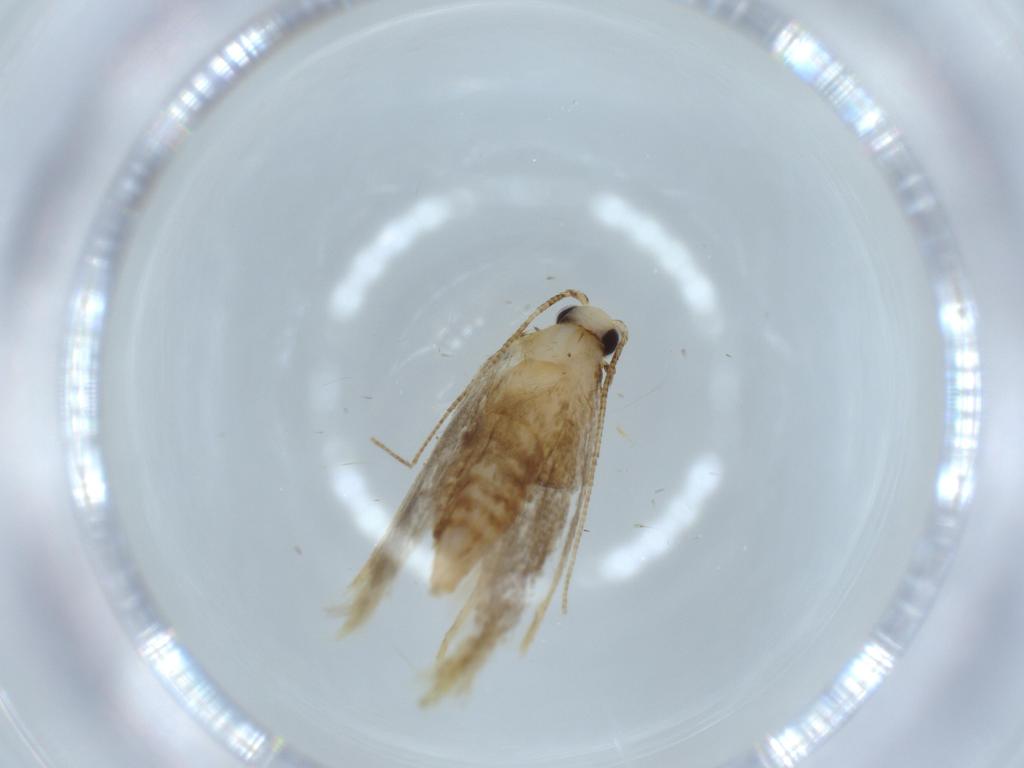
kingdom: Animalia
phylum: Arthropoda
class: Insecta
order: Lepidoptera
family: Tineidae
